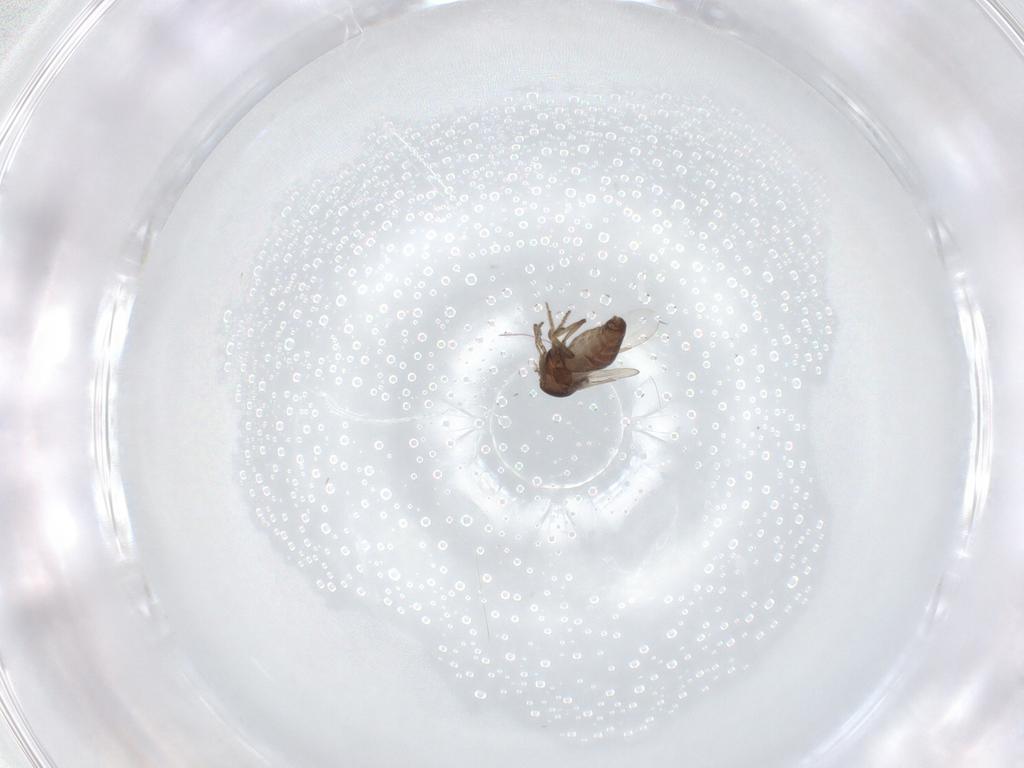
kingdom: Animalia
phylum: Arthropoda
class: Insecta
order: Diptera
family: Ceratopogonidae
